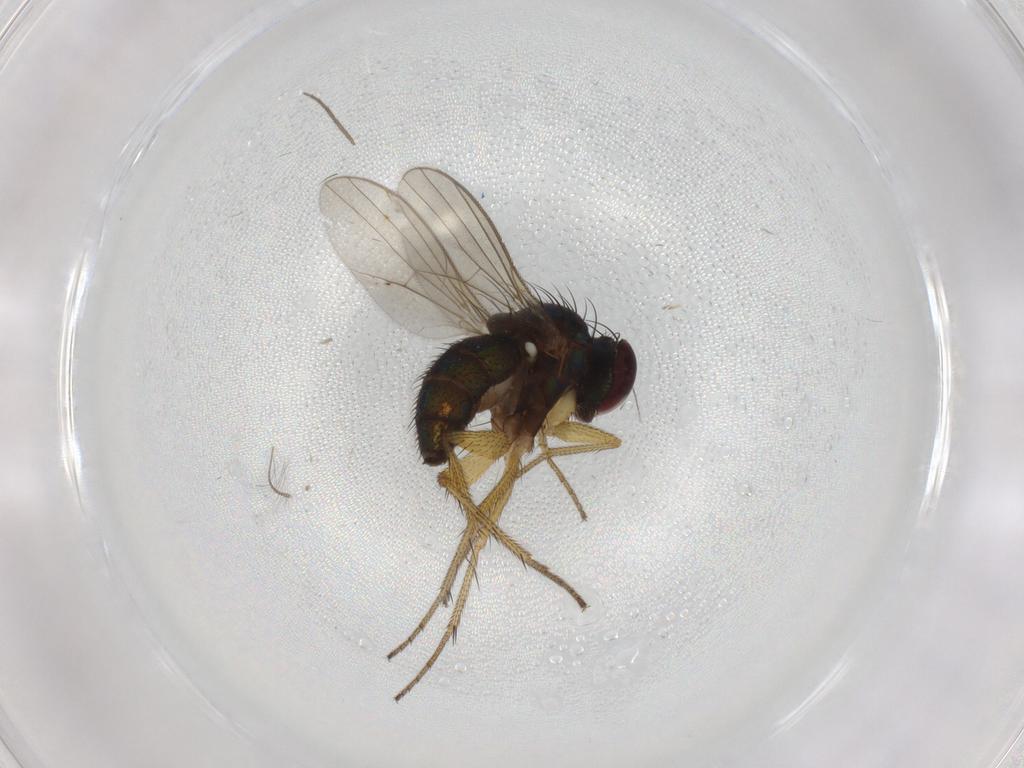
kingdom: Animalia
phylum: Arthropoda
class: Insecta
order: Diptera
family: Dolichopodidae
